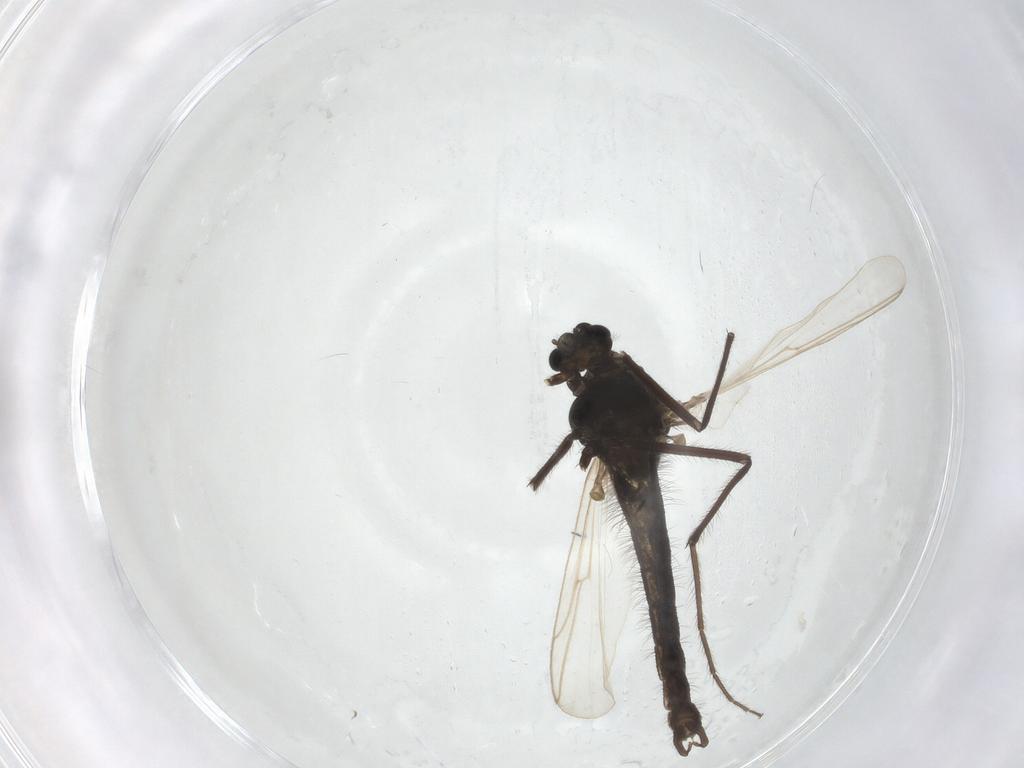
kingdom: Animalia
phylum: Arthropoda
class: Insecta
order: Diptera
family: Chironomidae
